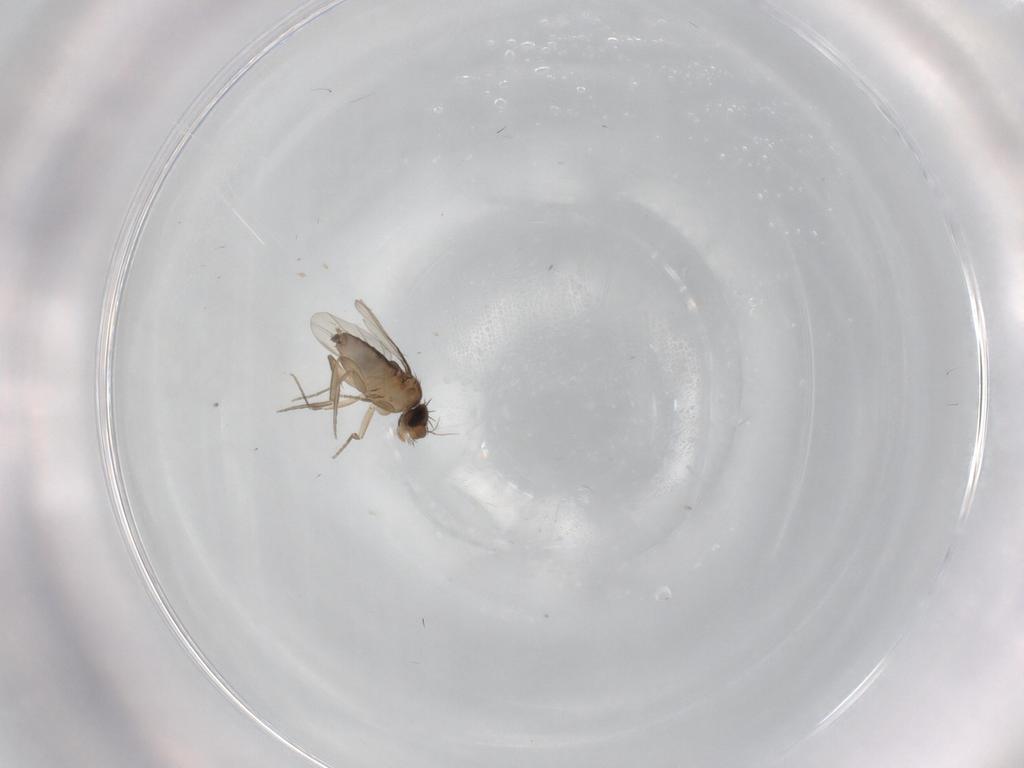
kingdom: Animalia
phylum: Arthropoda
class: Insecta
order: Diptera
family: Phoridae
